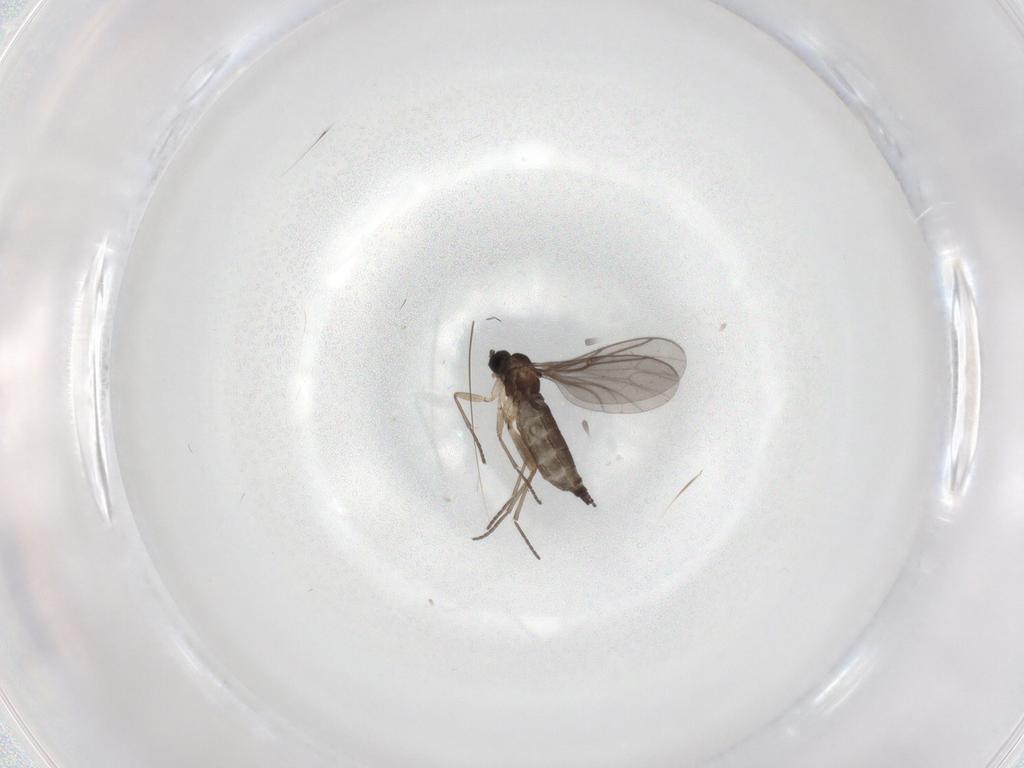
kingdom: Animalia
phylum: Arthropoda
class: Insecta
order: Diptera
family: Sciaridae
